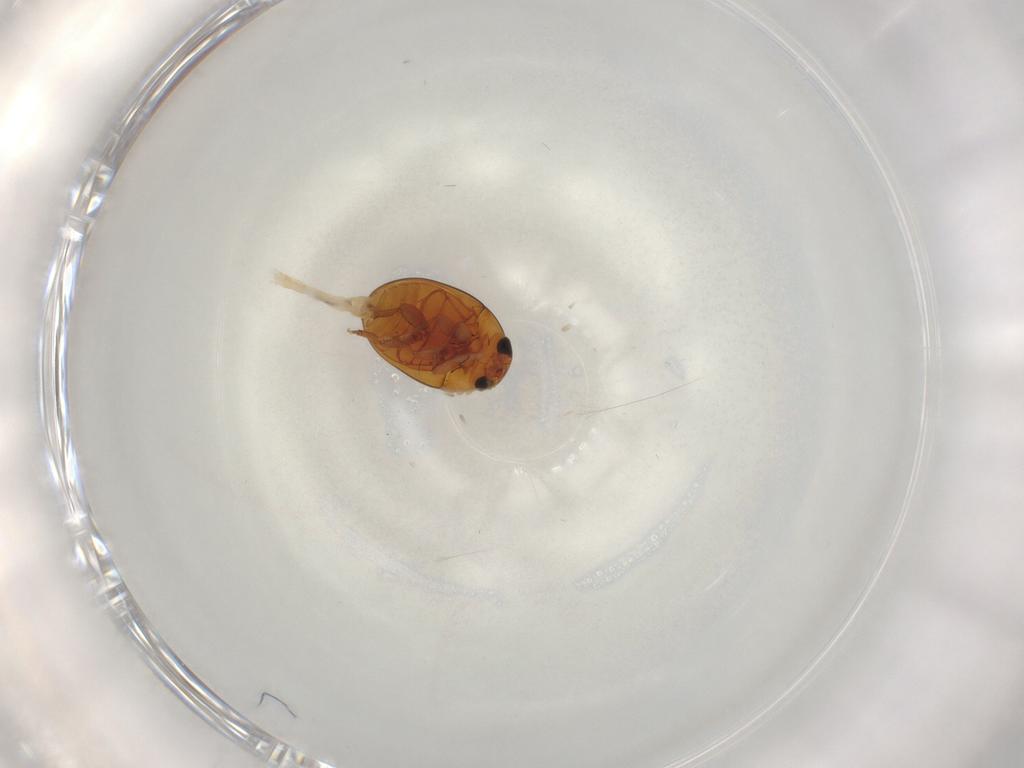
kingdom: Animalia
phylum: Arthropoda
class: Insecta
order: Coleoptera
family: Phalacridae
